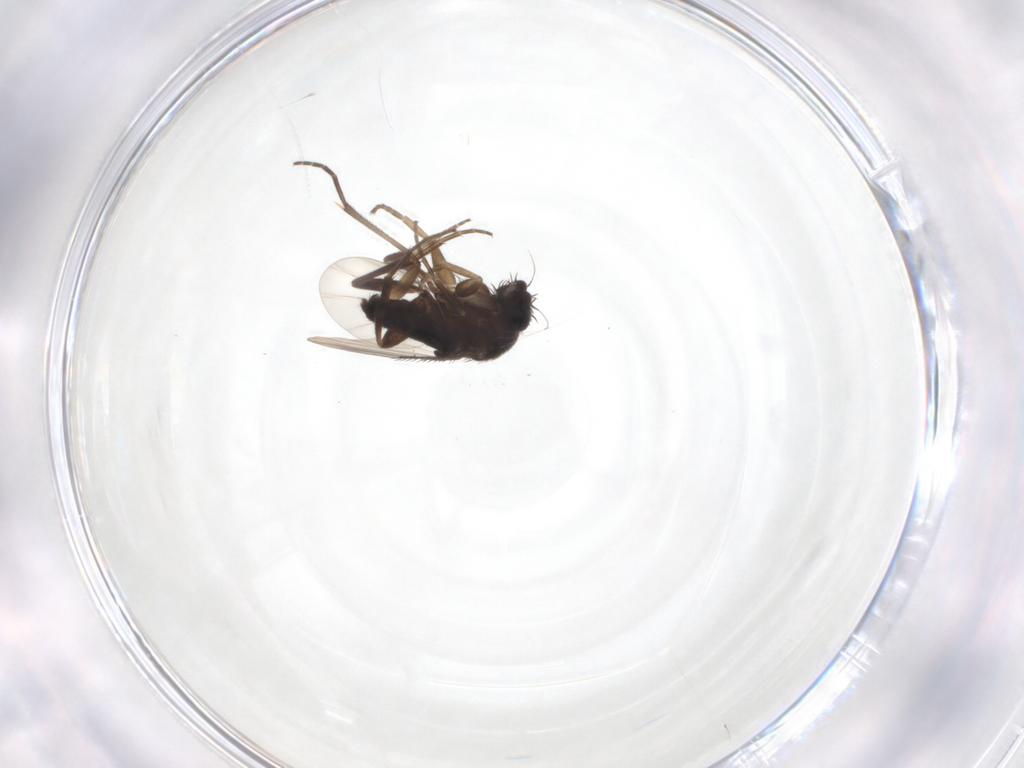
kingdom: Animalia
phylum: Arthropoda
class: Insecta
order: Diptera
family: Phoridae
